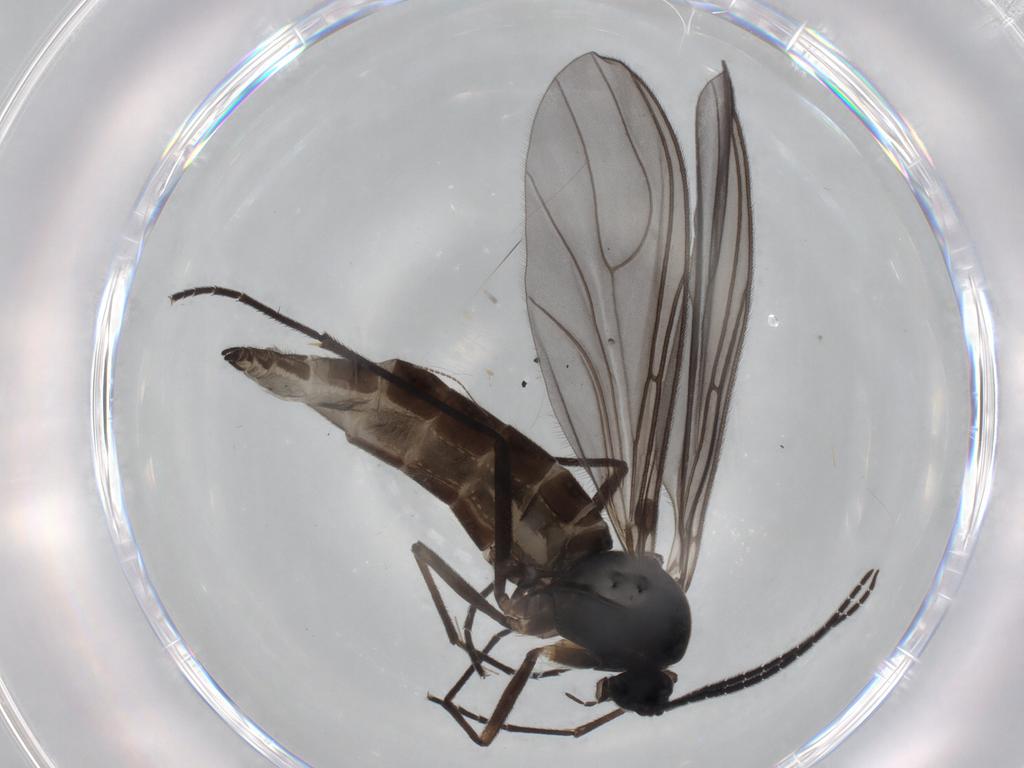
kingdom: Animalia
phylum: Arthropoda
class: Insecta
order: Diptera
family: Sciaridae
